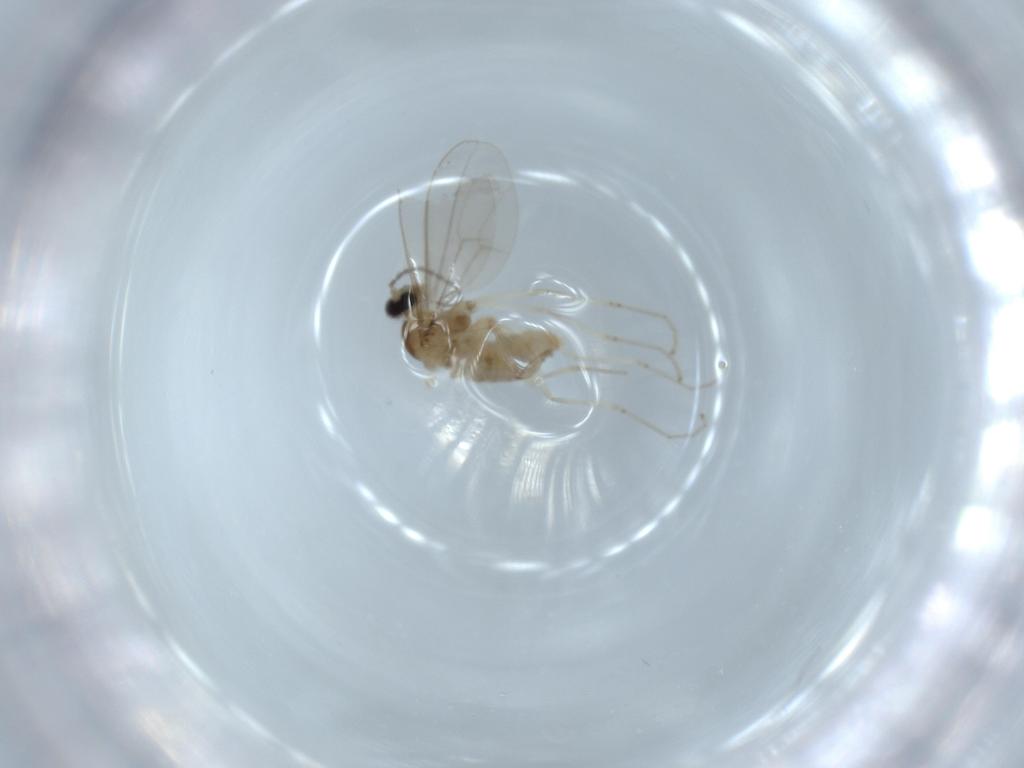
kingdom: Animalia
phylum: Arthropoda
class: Insecta
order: Diptera
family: Cecidomyiidae
